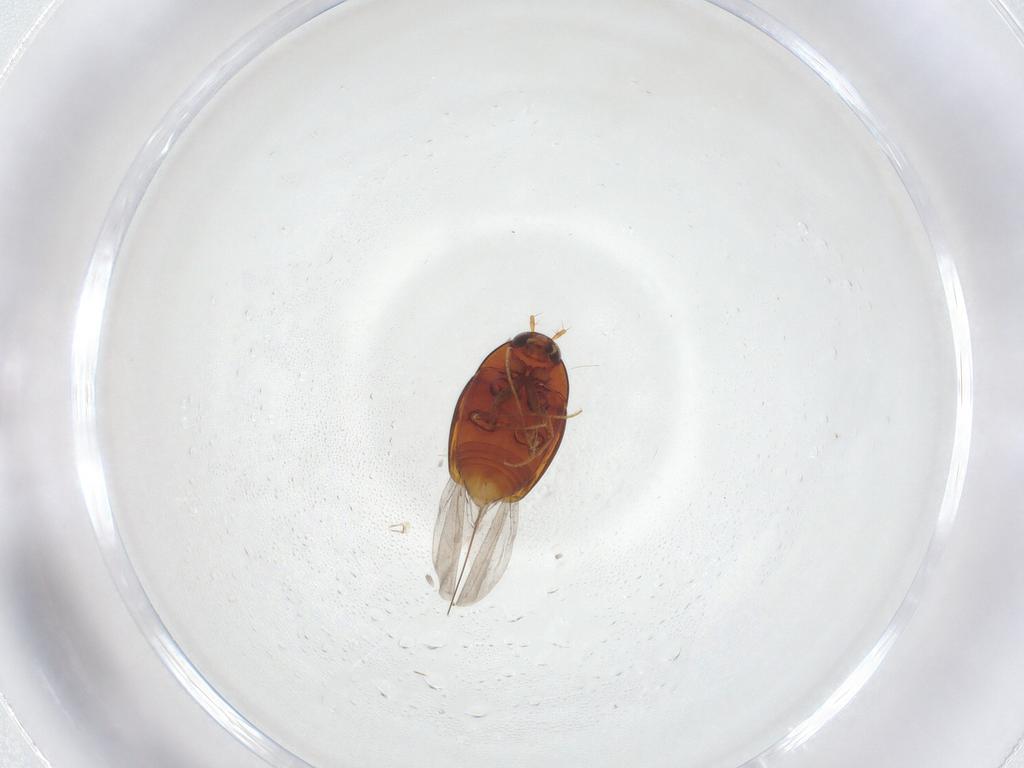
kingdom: Animalia
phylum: Arthropoda
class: Insecta
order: Coleoptera
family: Staphylinidae
